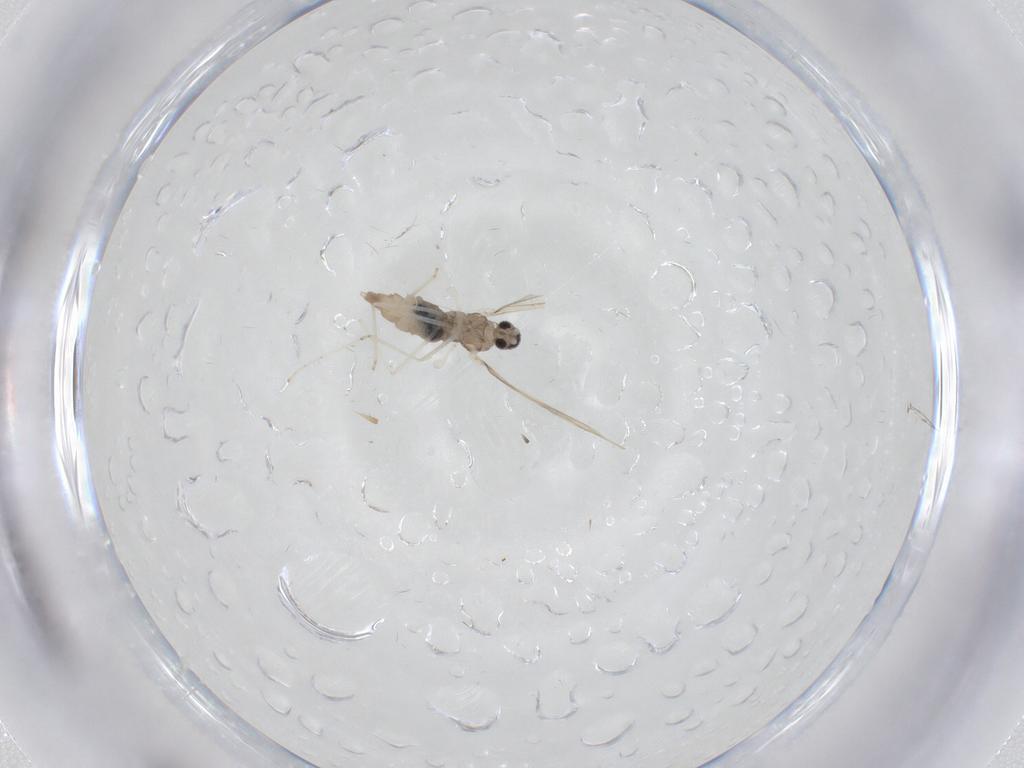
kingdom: Animalia
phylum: Arthropoda
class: Insecta
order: Diptera
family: Cecidomyiidae
